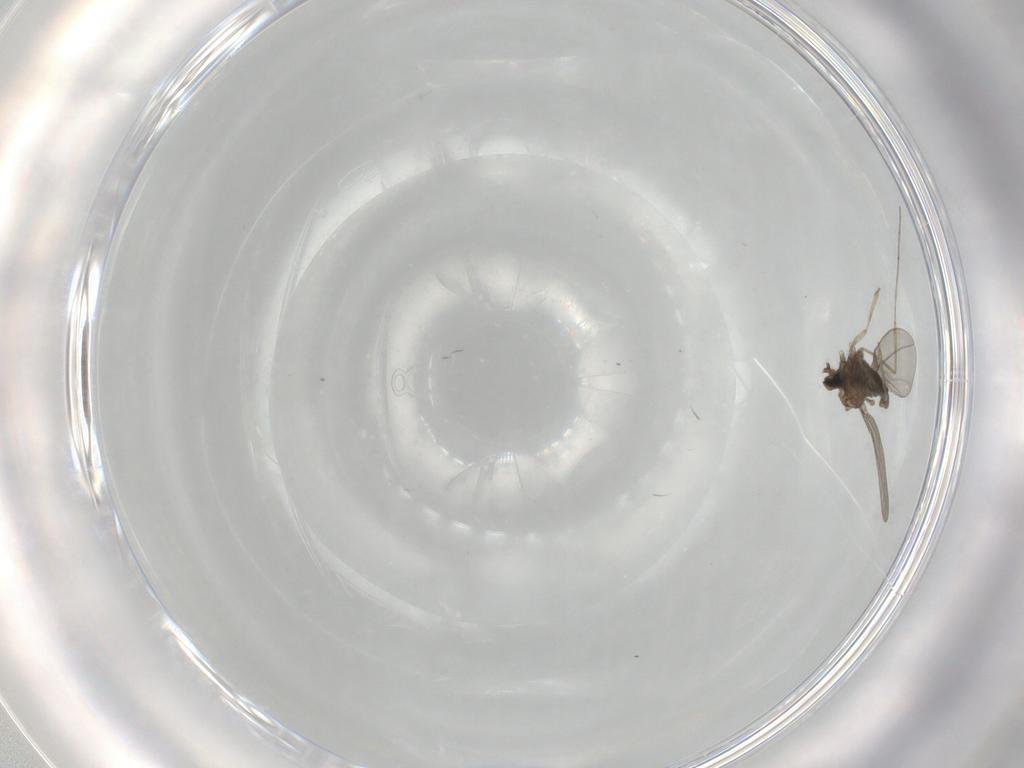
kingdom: Animalia
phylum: Arthropoda
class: Insecta
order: Diptera
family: Cecidomyiidae
